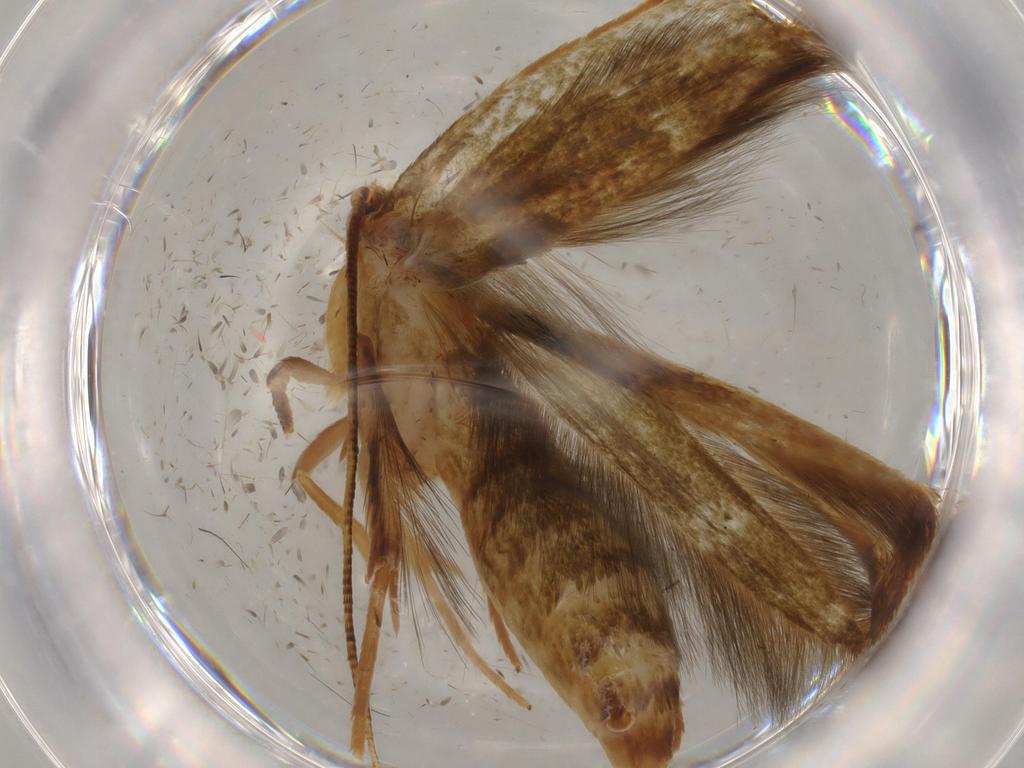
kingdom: Animalia
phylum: Arthropoda
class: Insecta
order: Lepidoptera
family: Tineidae
